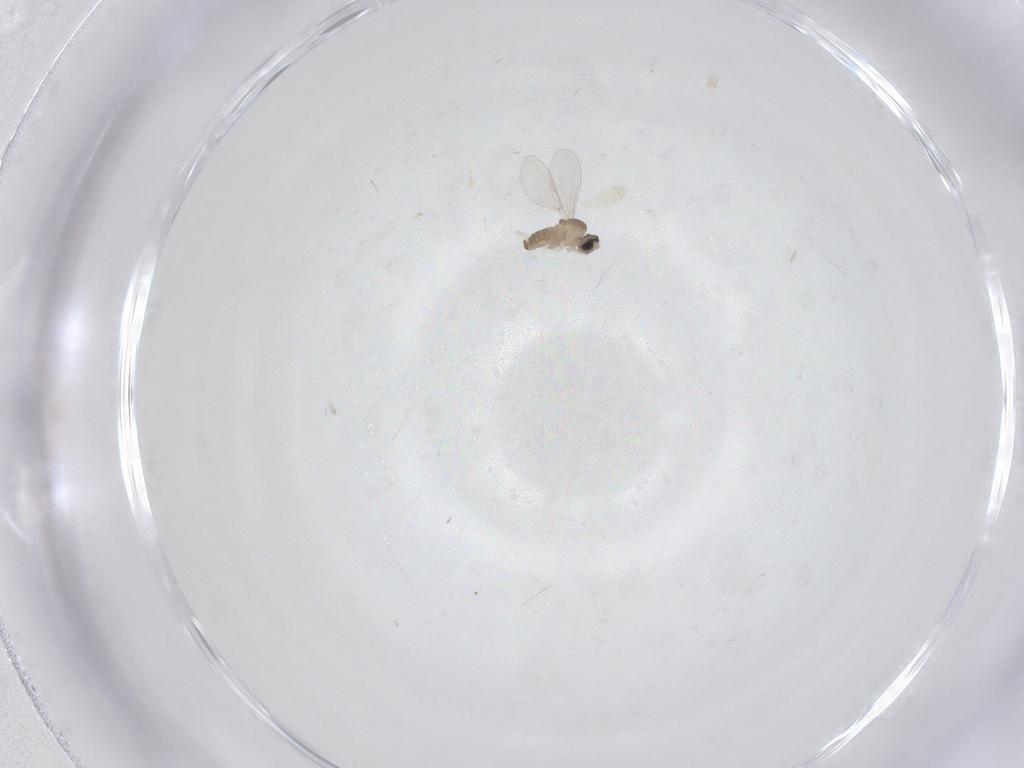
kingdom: Animalia
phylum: Arthropoda
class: Insecta
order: Diptera
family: Cecidomyiidae
